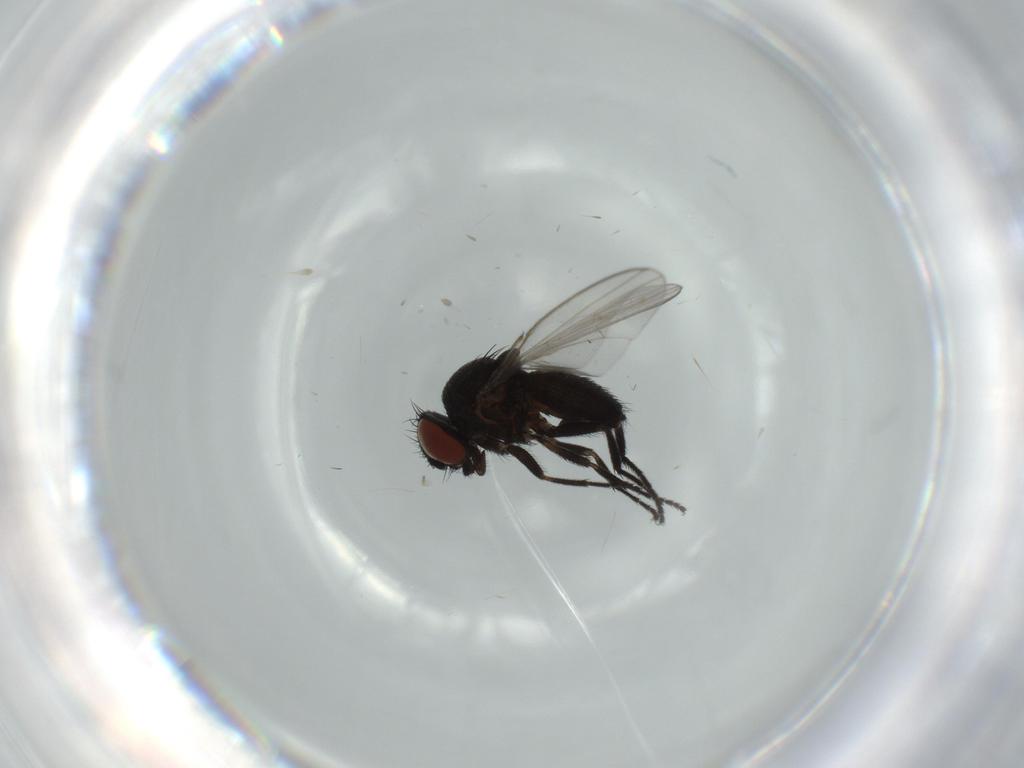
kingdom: Animalia
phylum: Arthropoda
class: Insecta
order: Diptera
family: Milichiidae
